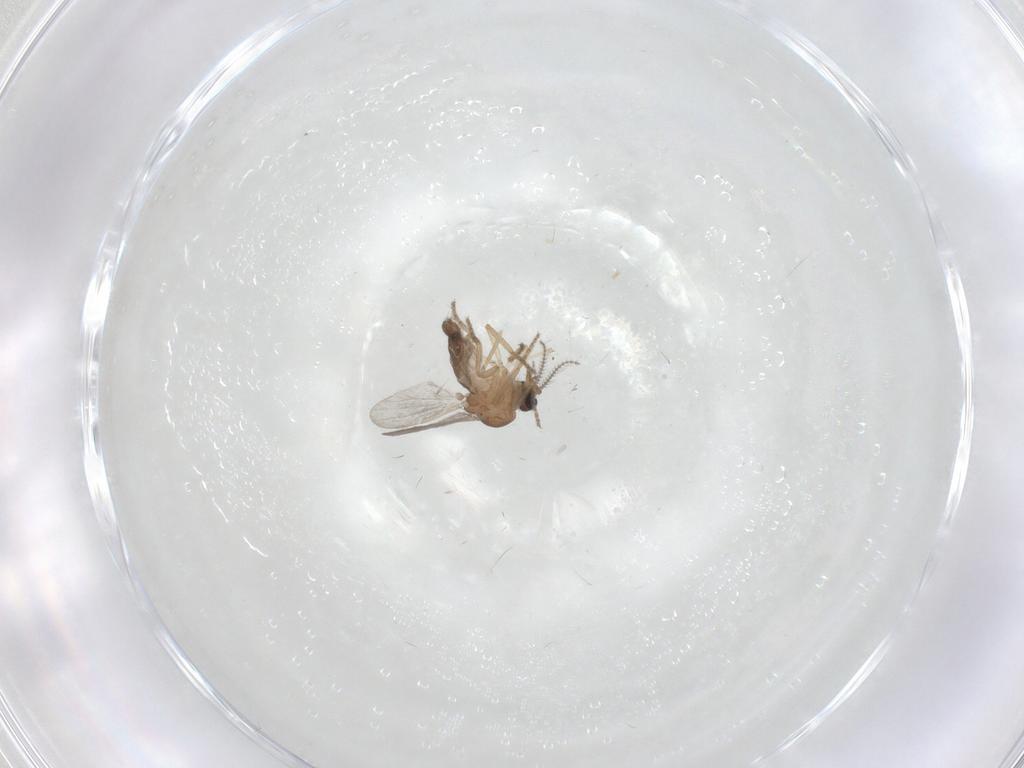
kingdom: Animalia
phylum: Arthropoda
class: Insecta
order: Diptera
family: Ceratopogonidae
